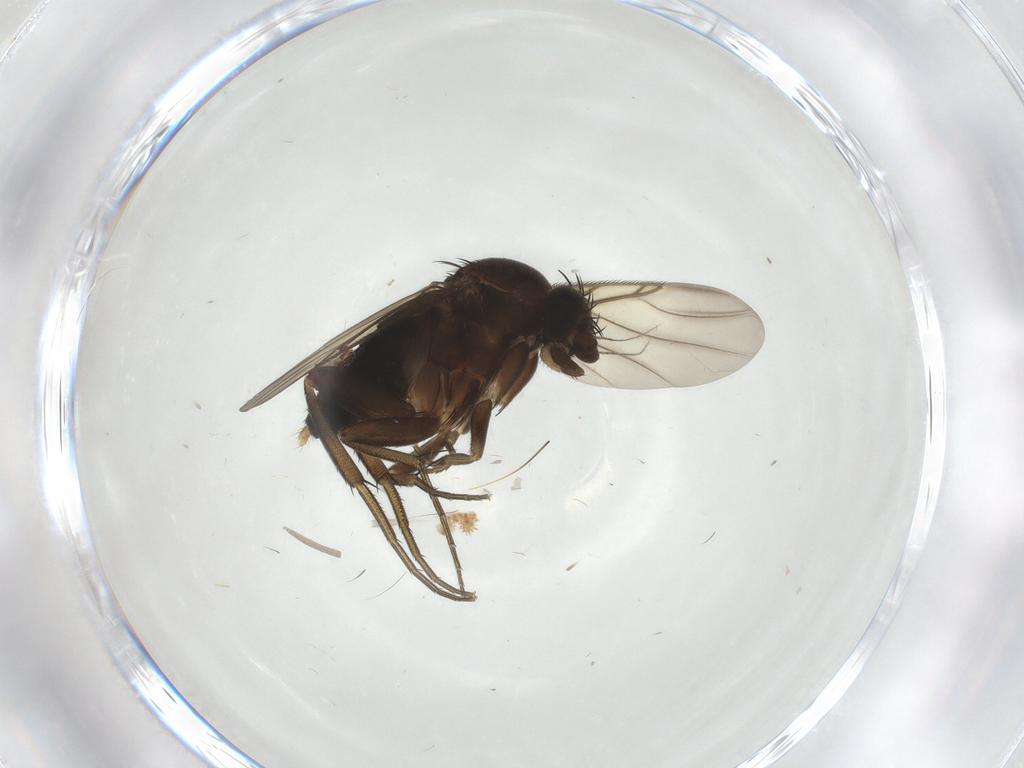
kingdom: Animalia
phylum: Arthropoda
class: Insecta
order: Diptera
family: Phoridae
